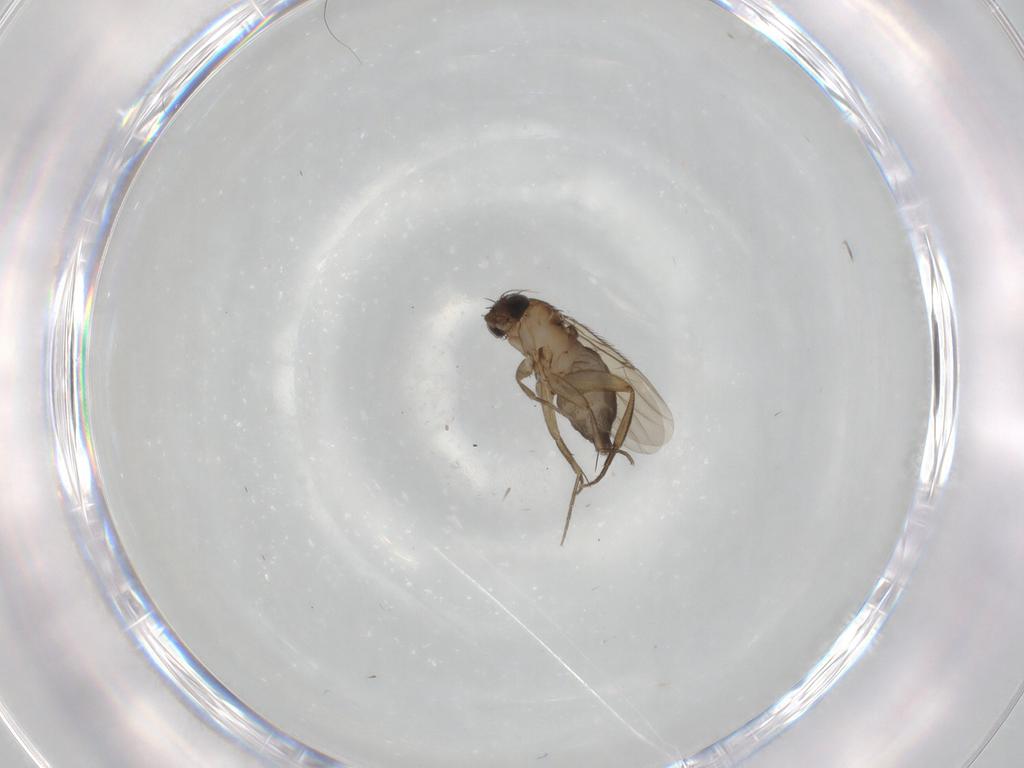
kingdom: Animalia
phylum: Arthropoda
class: Insecta
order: Diptera
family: Phoridae
